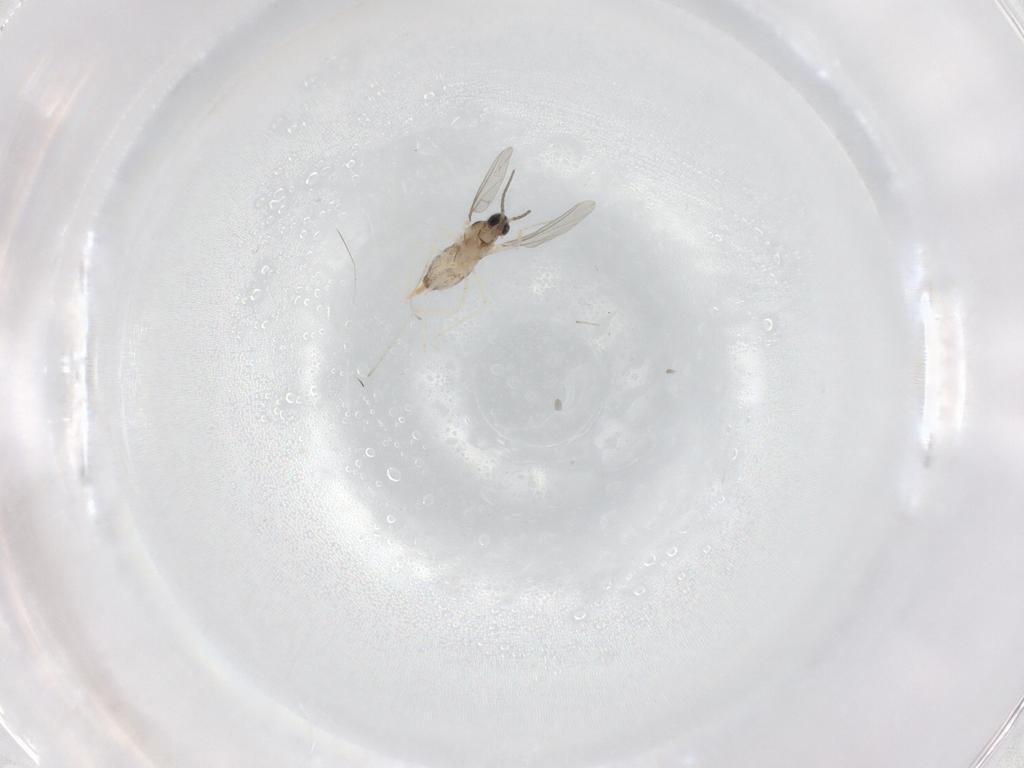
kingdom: Animalia
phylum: Arthropoda
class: Insecta
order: Diptera
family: Cecidomyiidae
